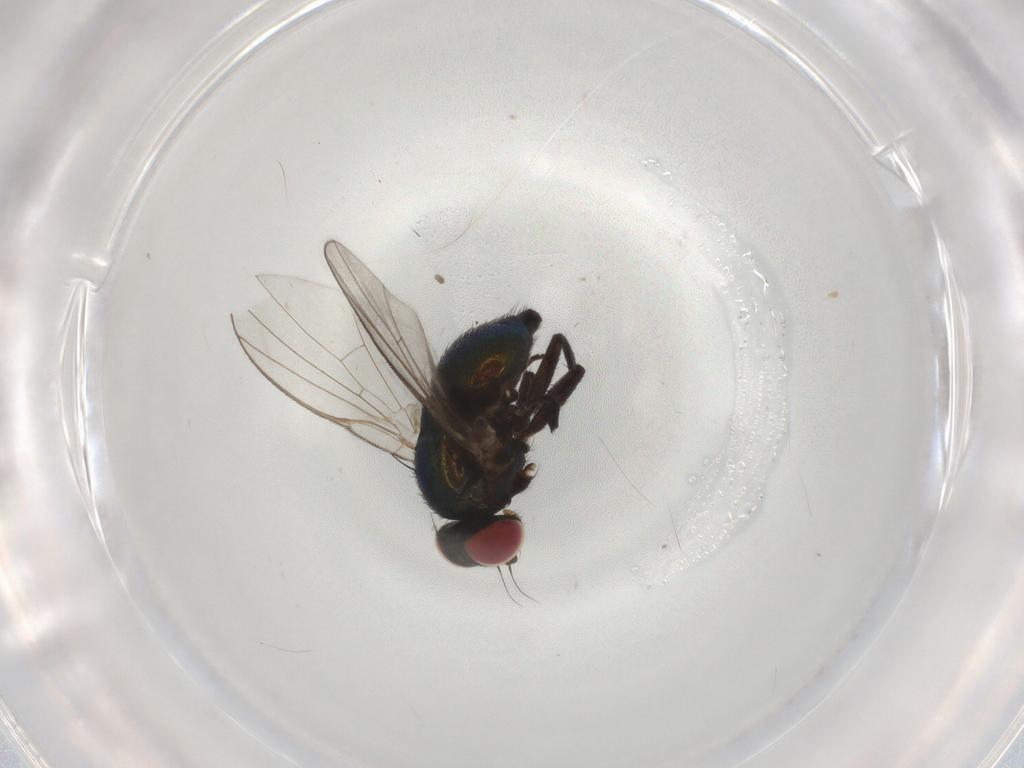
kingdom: Animalia
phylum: Arthropoda
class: Insecta
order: Diptera
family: Agromyzidae
